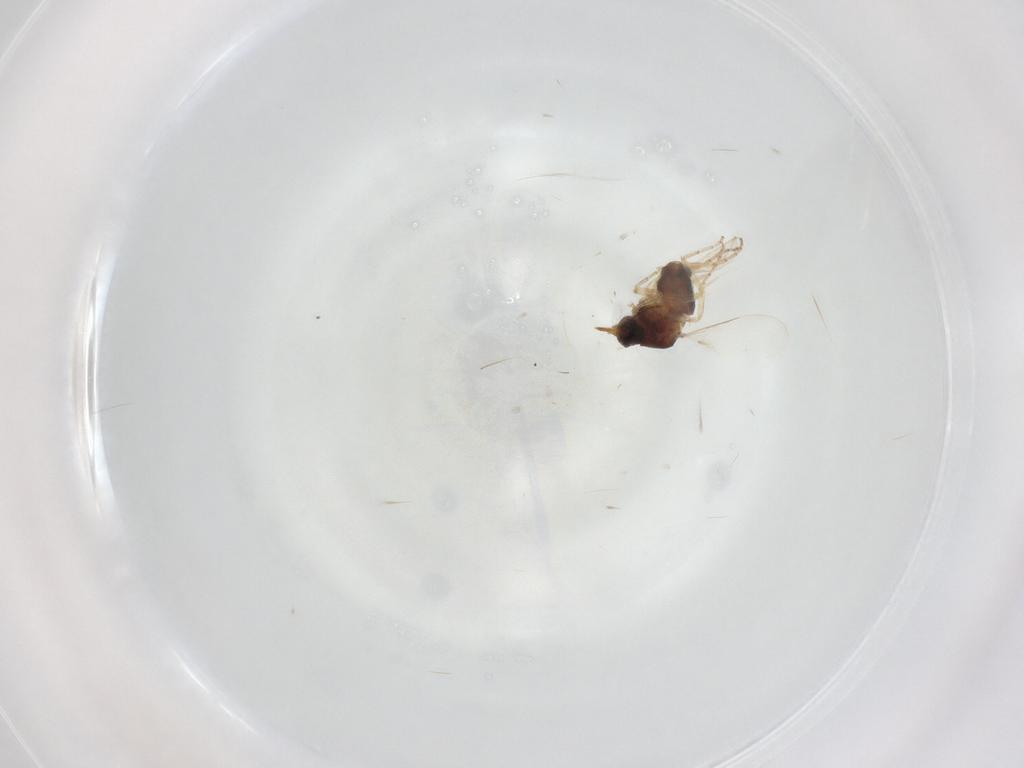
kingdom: Animalia
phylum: Arthropoda
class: Insecta
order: Diptera
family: Ceratopogonidae
